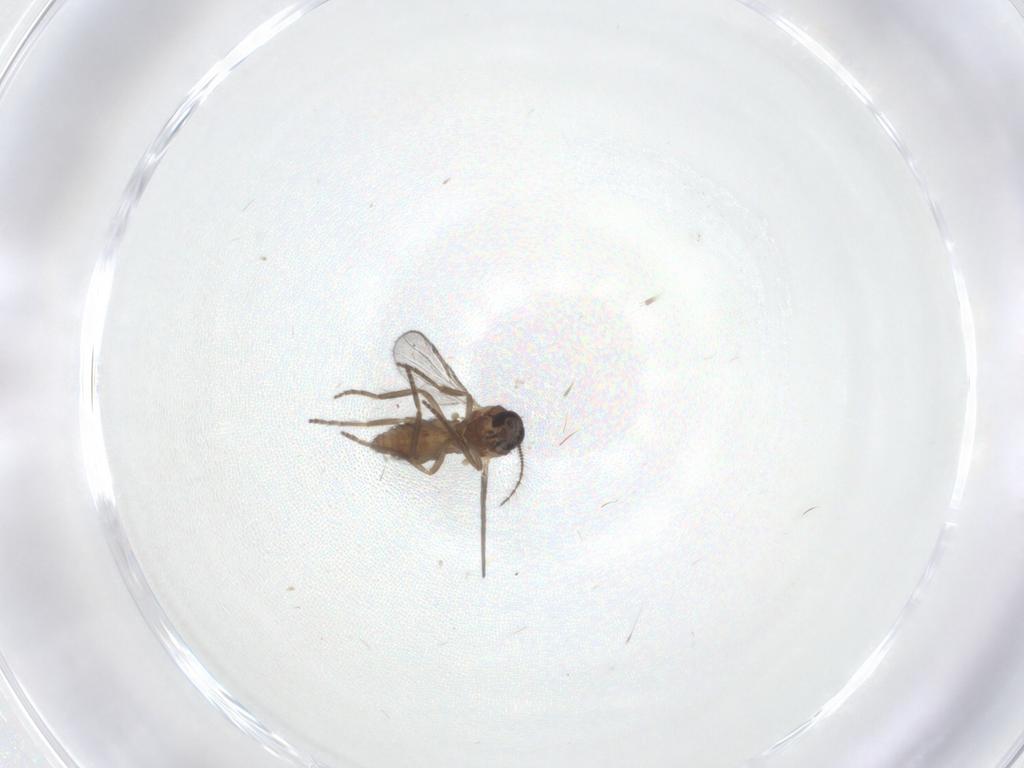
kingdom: Animalia
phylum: Arthropoda
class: Insecta
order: Diptera
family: Ceratopogonidae
